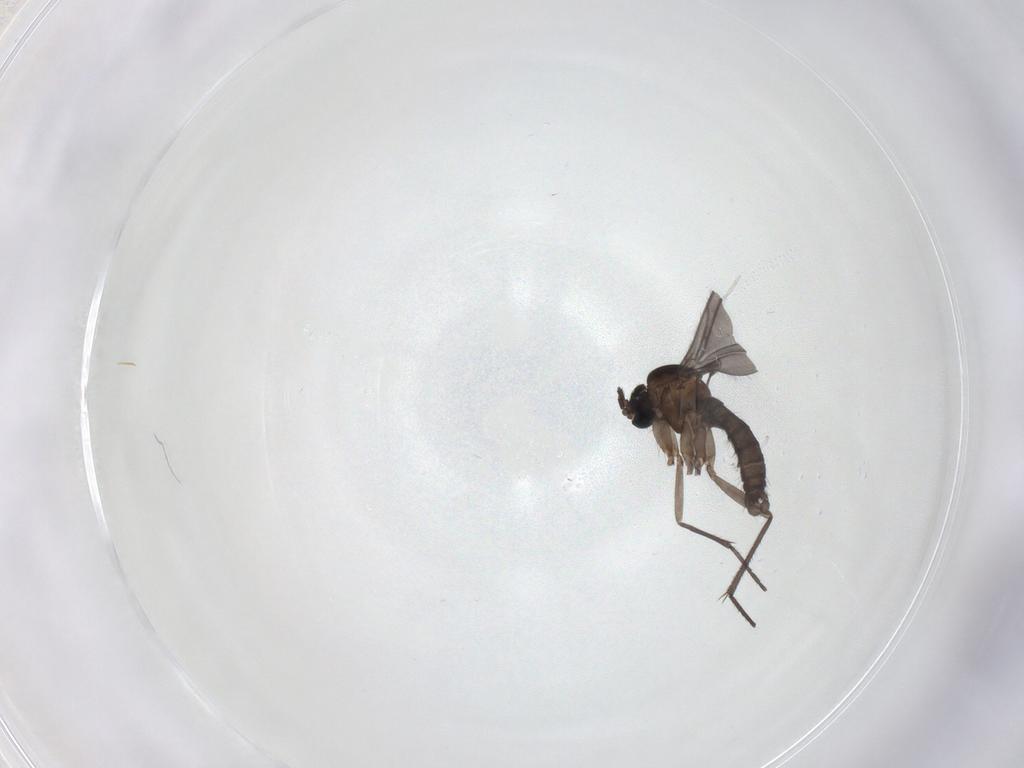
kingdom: Animalia
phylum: Arthropoda
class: Insecta
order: Diptera
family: Sciaridae
